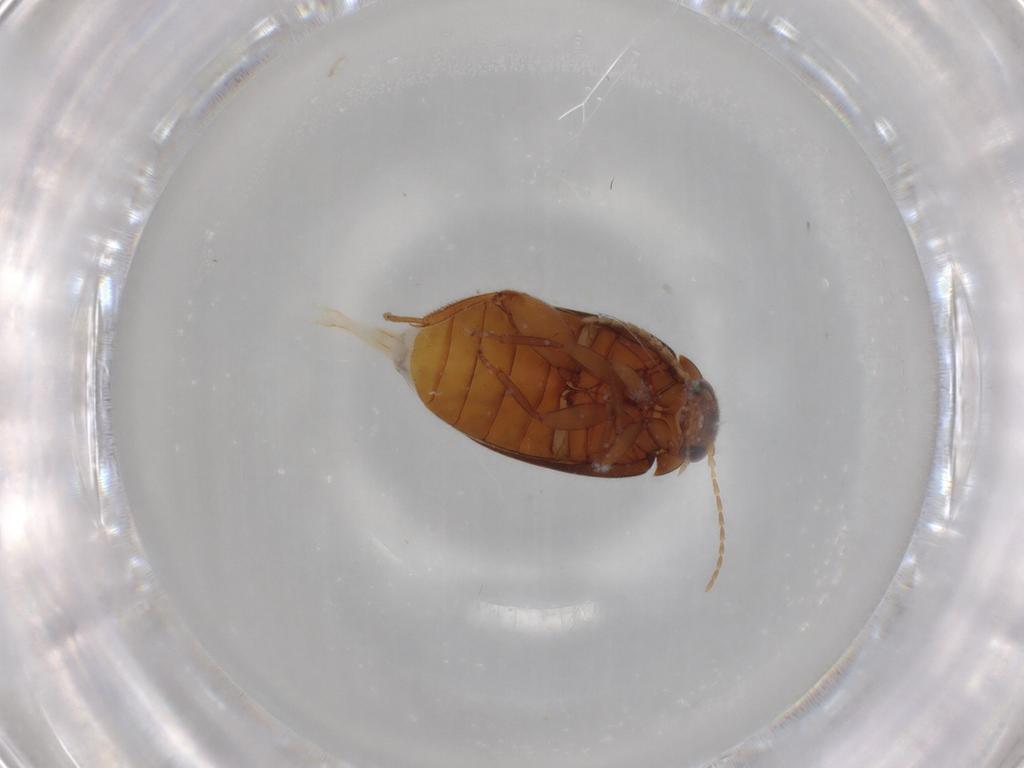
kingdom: Animalia
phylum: Arthropoda
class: Insecta
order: Coleoptera
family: Scirtidae
